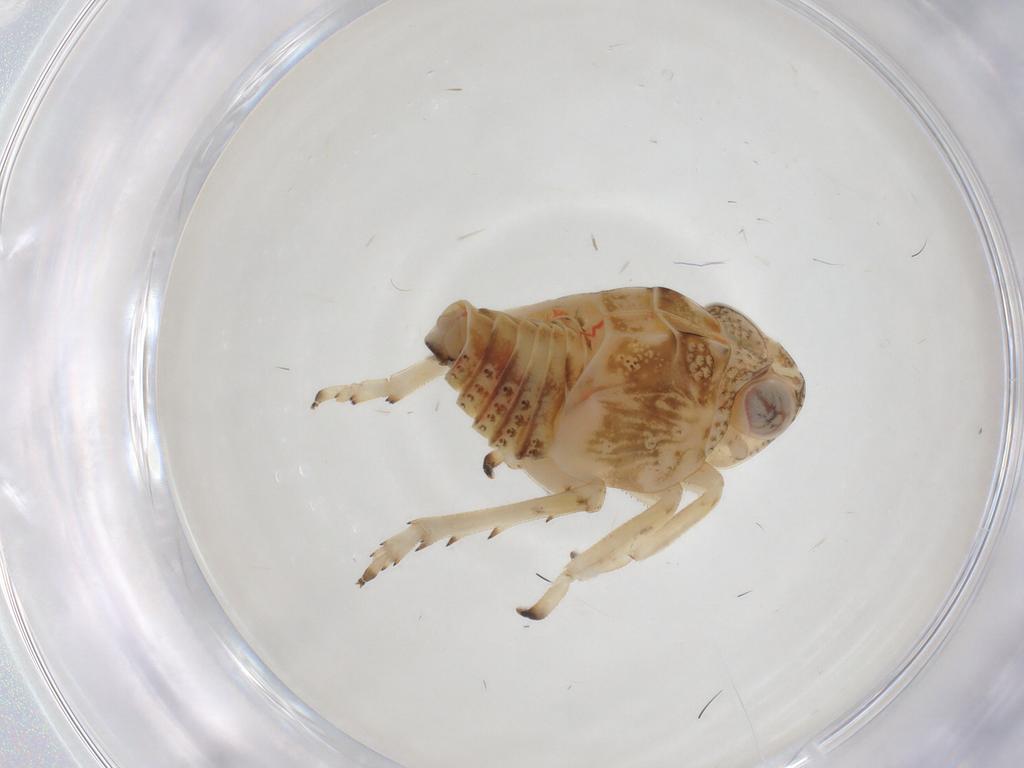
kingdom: Animalia
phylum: Arthropoda
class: Insecta
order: Hemiptera
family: Issidae
